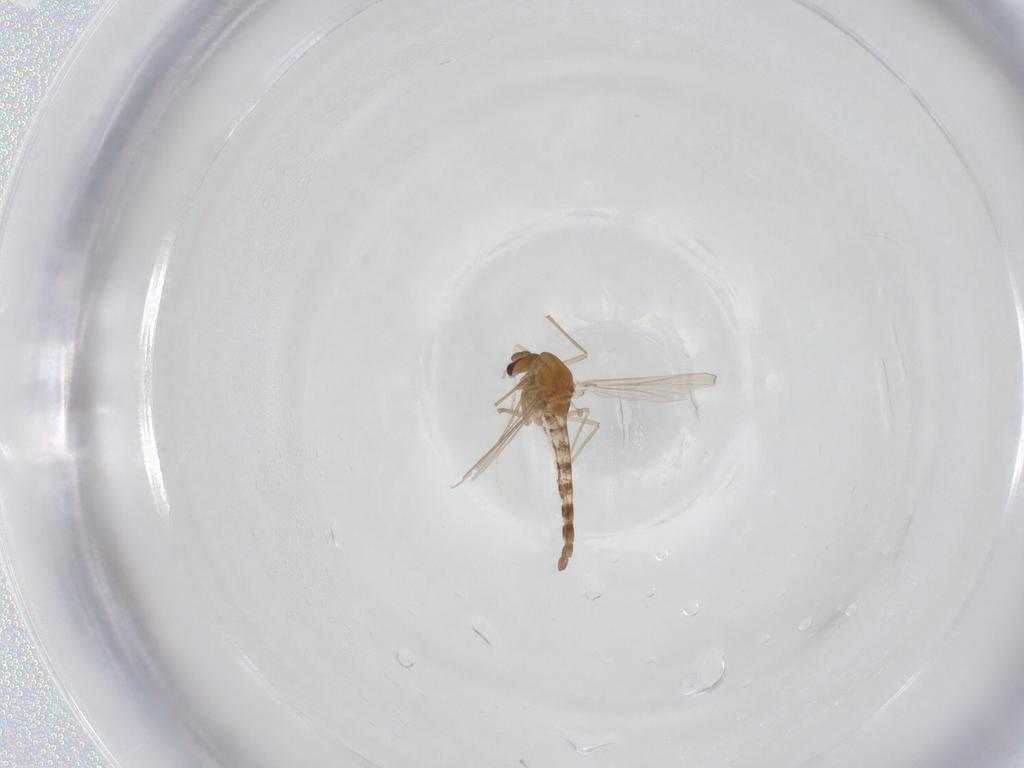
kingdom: Animalia
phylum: Arthropoda
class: Insecta
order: Diptera
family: Chironomidae
